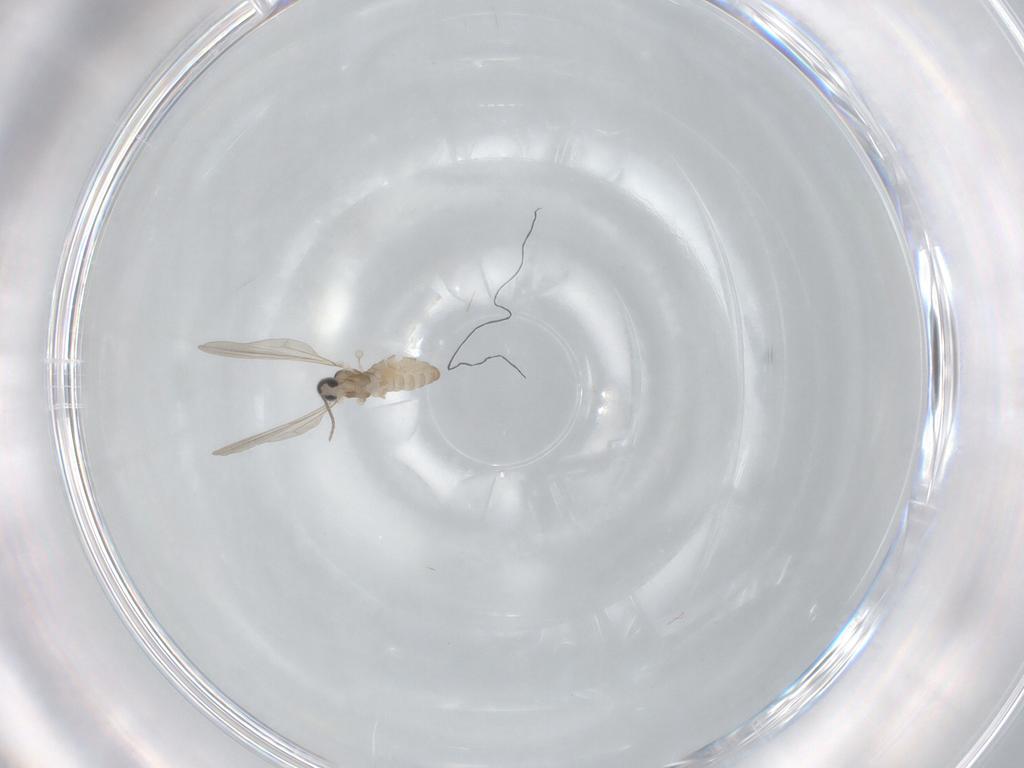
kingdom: Animalia
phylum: Arthropoda
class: Insecta
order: Diptera
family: Cecidomyiidae
